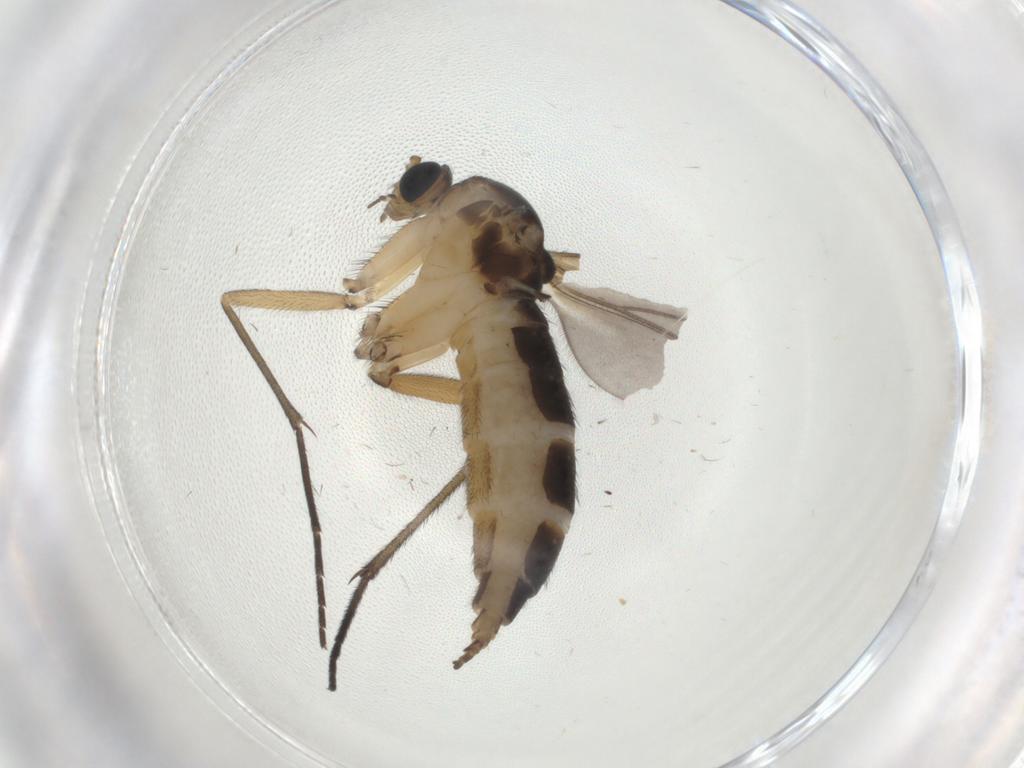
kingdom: Animalia
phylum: Arthropoda
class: Insecta
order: Diptera
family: Sciaridae
